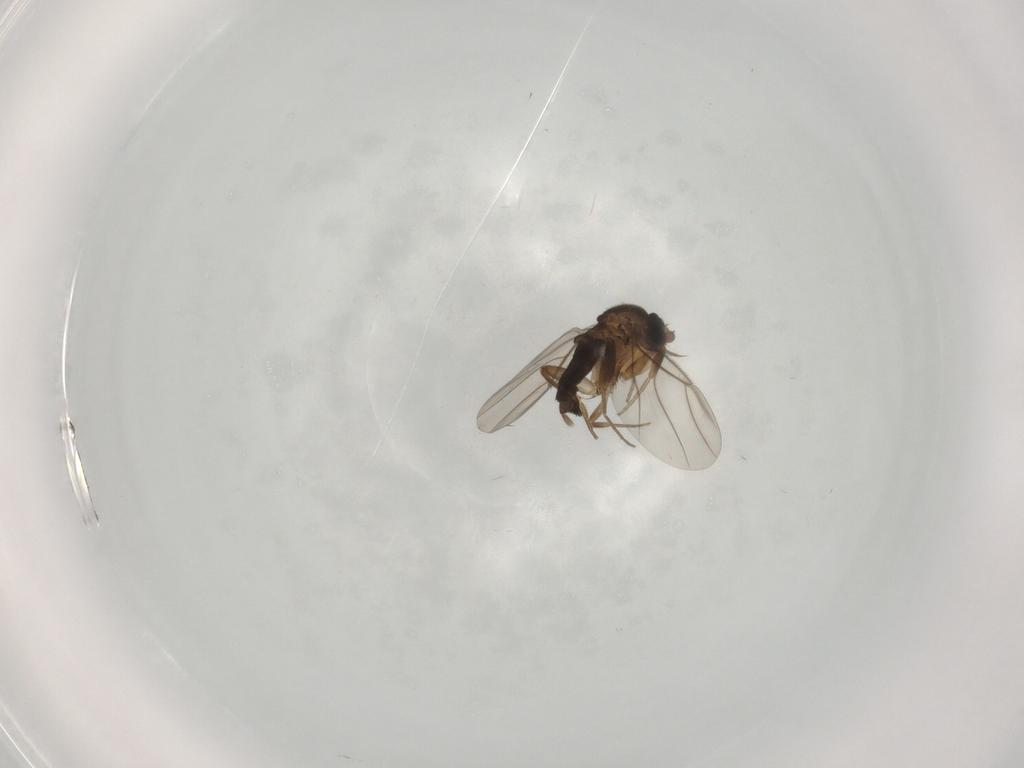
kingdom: Animalia
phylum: Arthropoda
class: Insecta
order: Diptera
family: Phoridae
